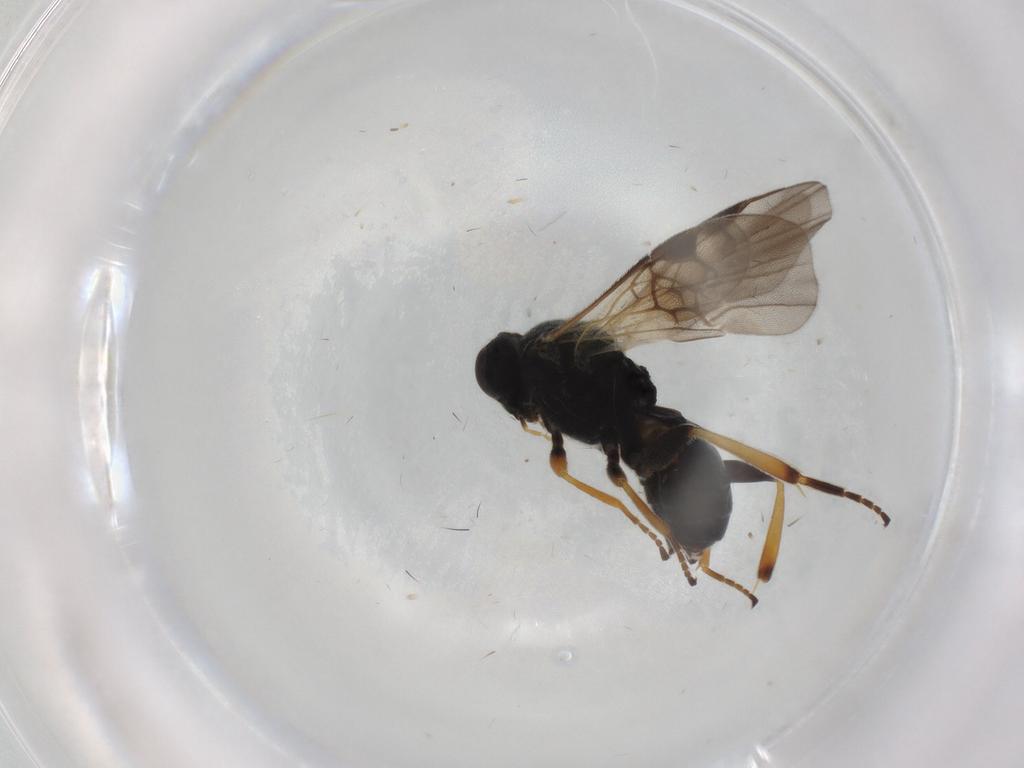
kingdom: Animalia
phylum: Arthropoda
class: Insecta
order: Hymenoptera
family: Braconidae
